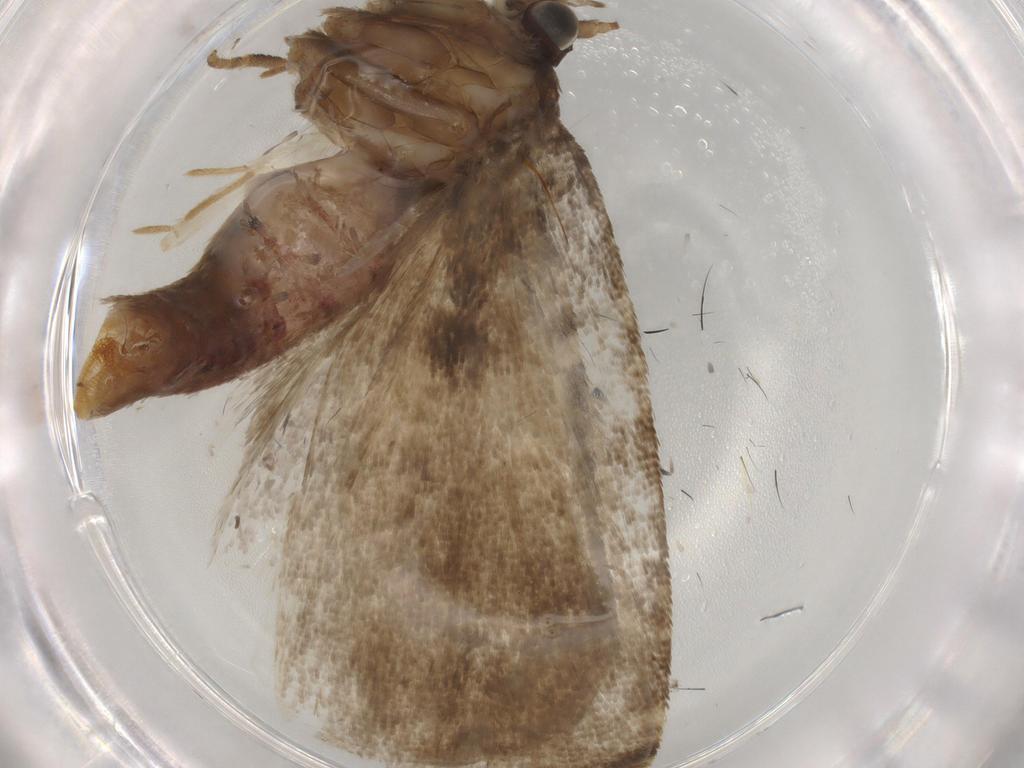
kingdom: Animalia
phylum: Arthropoda
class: Insecta
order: Lepidoptera
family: Tortricidae
